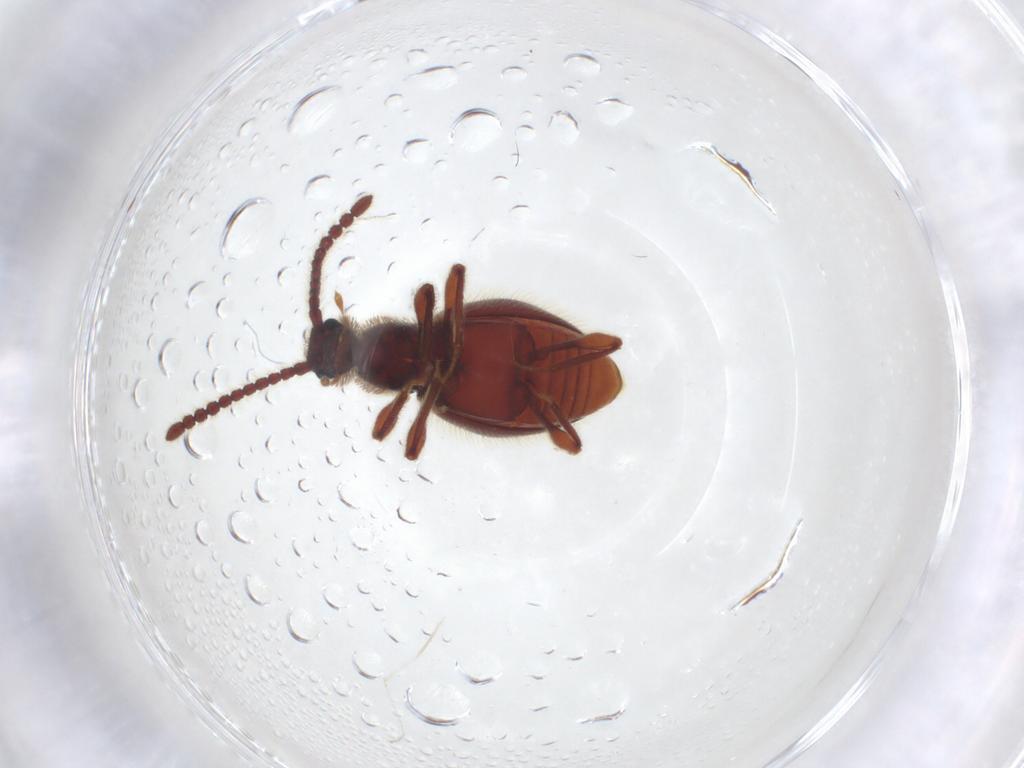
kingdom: Animalia
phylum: Arthropoda
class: Insecta
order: Coleoptera
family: Staphylinidae
